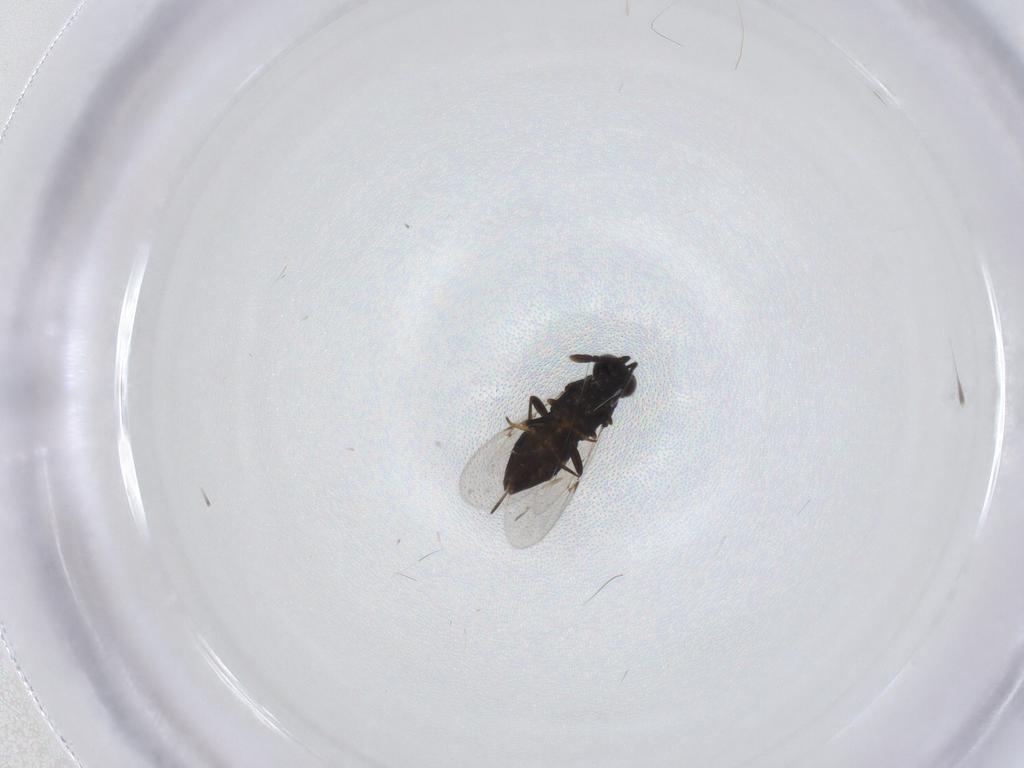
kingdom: Animalia
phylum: Arthropoda
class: Insecta
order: Hymenoptera
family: Encyrtidae
